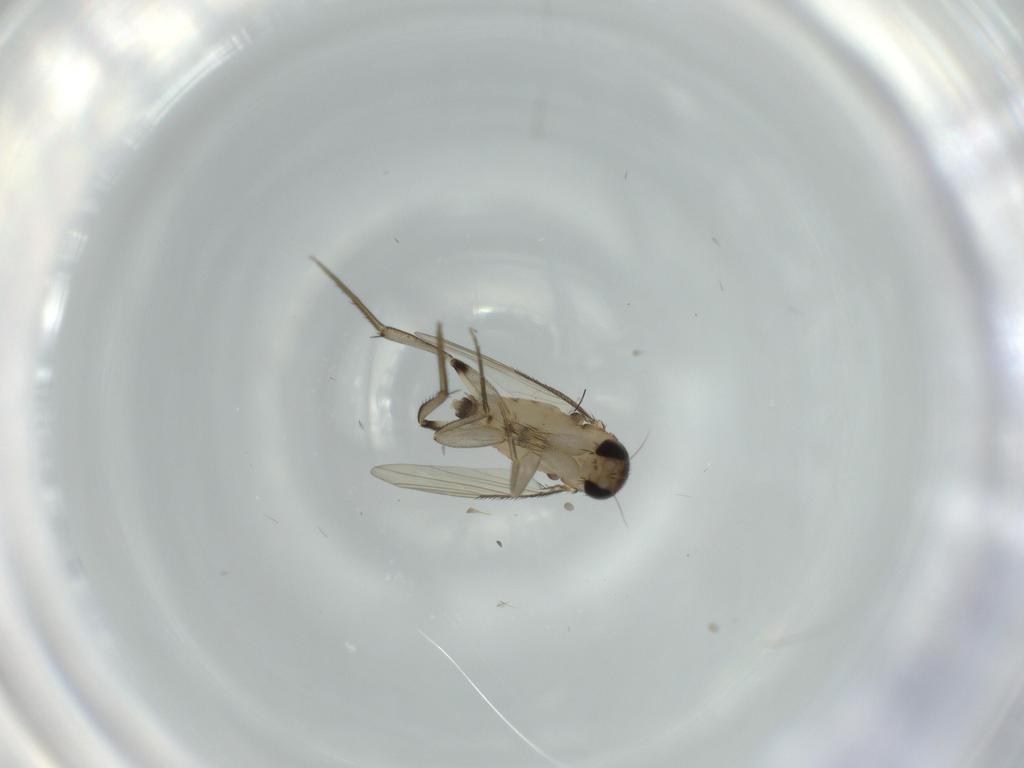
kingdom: Animalia
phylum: Arthropoda
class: Insecta
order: Diptera
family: Phoridae
